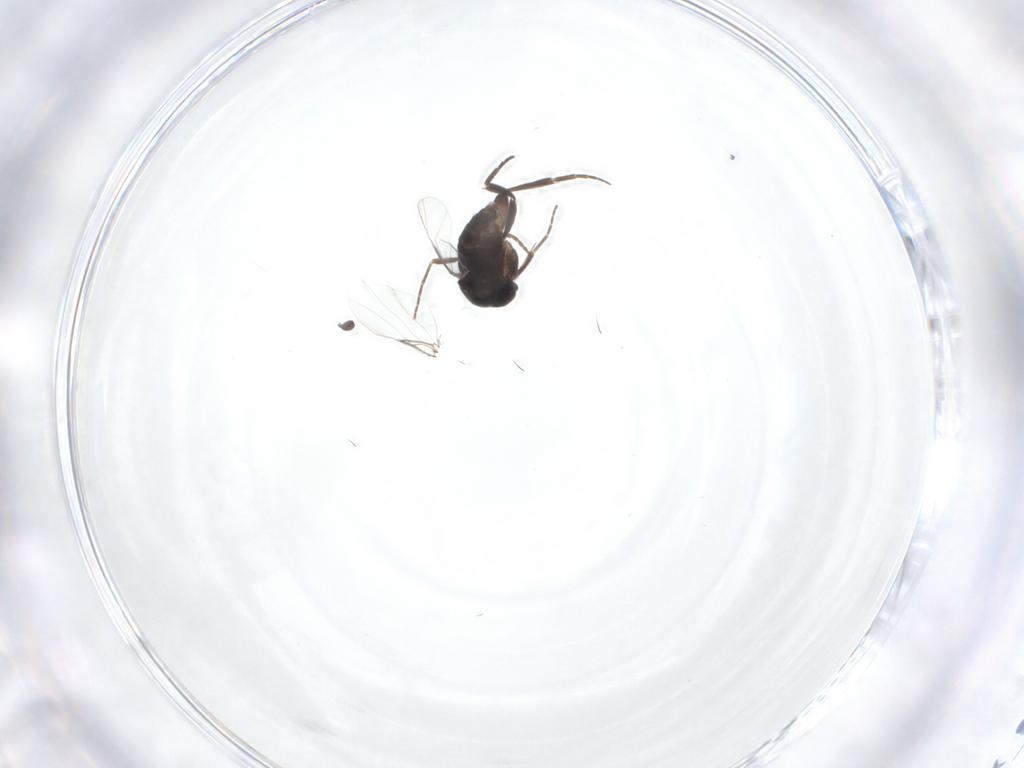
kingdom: Animalia
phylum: Arthropoda
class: Insecta
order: Diptera
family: Phoridae
